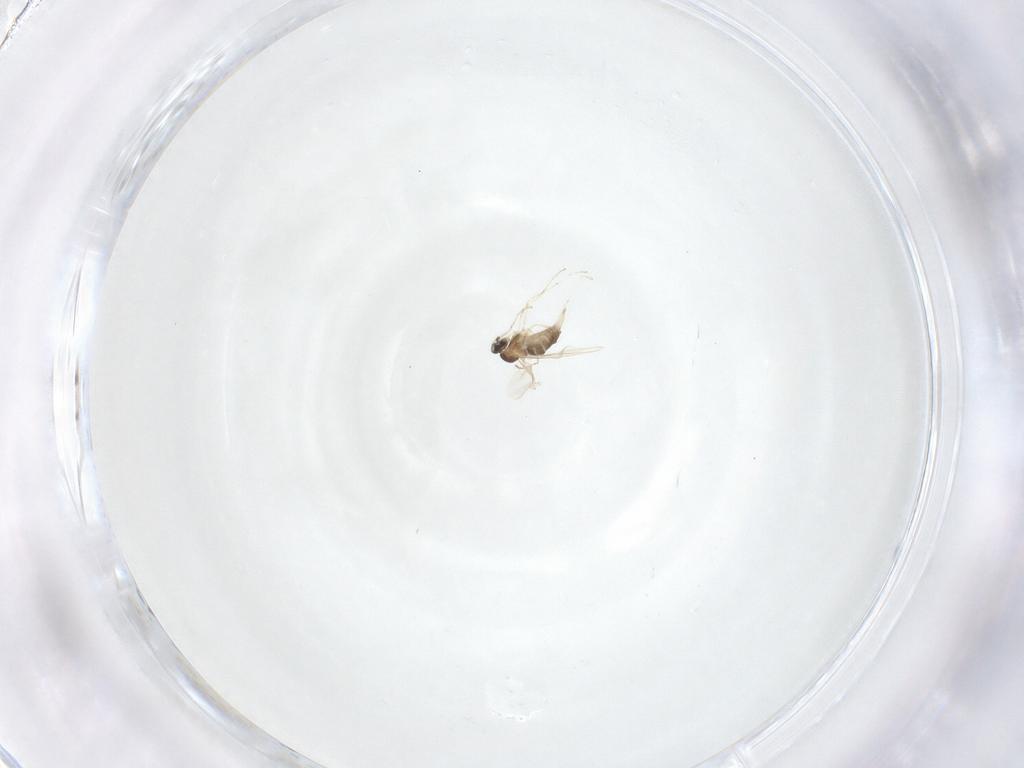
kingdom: Animalia
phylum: Arthropoda
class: Insecta
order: Diptera
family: Cecidomyiidae
